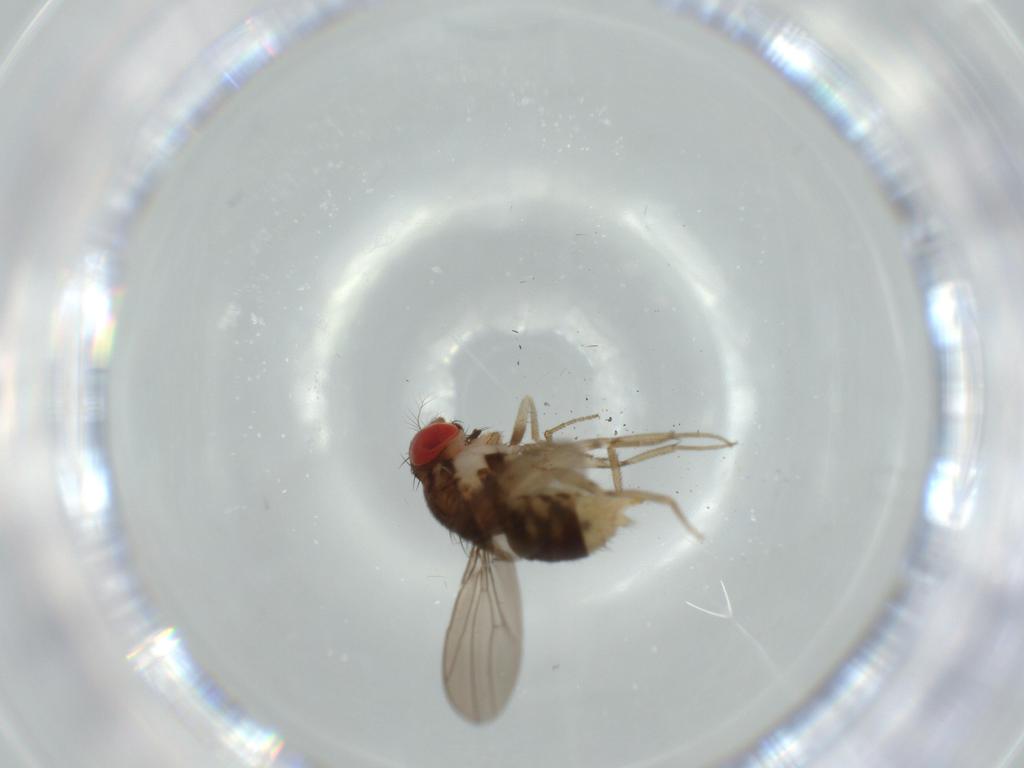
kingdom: Animalia
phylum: Arthropoda
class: Insecta
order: Diptera
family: Drosophilidae
